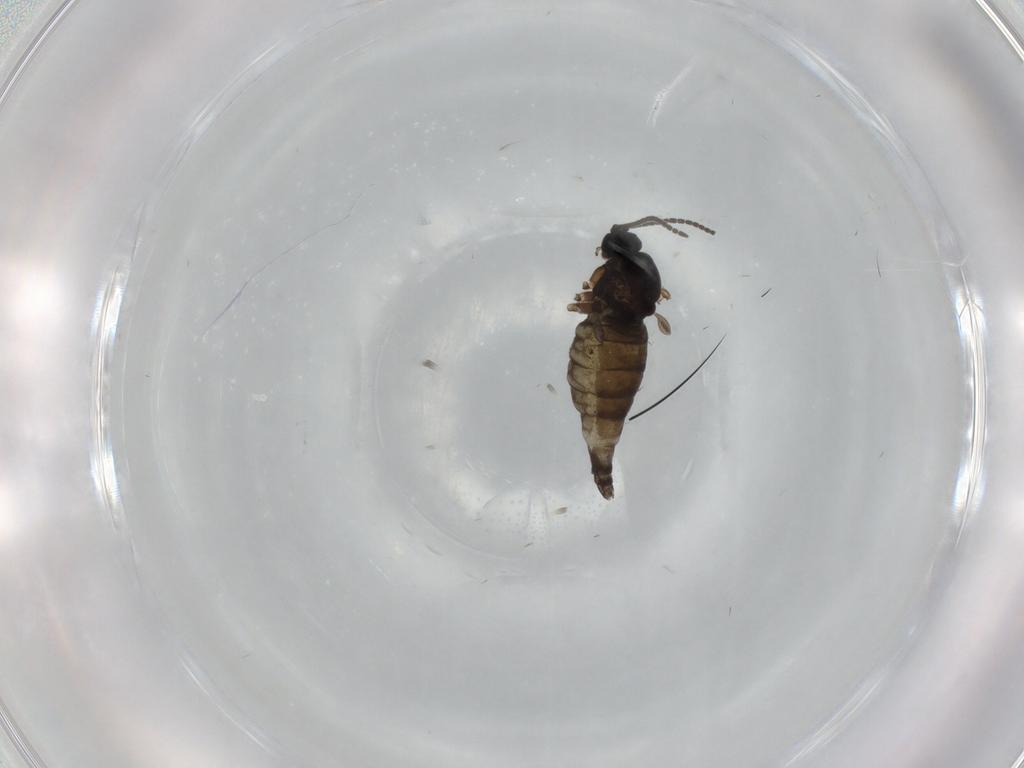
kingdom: Animalia
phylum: Arthropoda
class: Insecta
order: Diptera
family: Sciaridae
